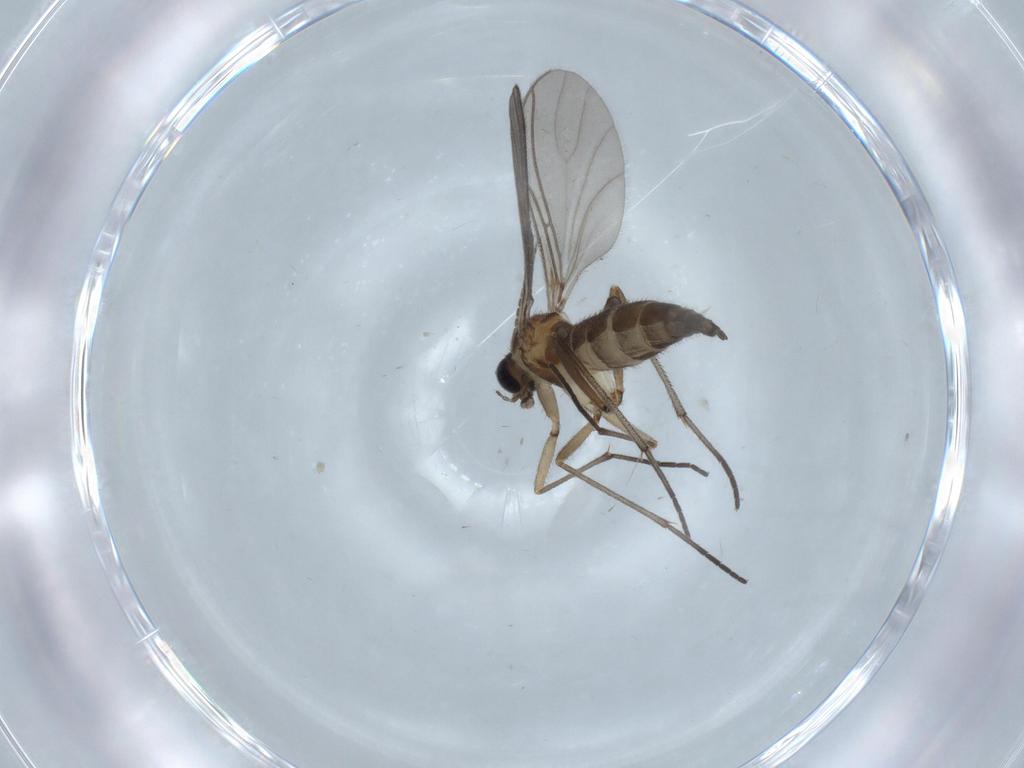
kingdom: Animalia
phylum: Arthropoda
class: Insecta
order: Diptera
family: Sciaridae
